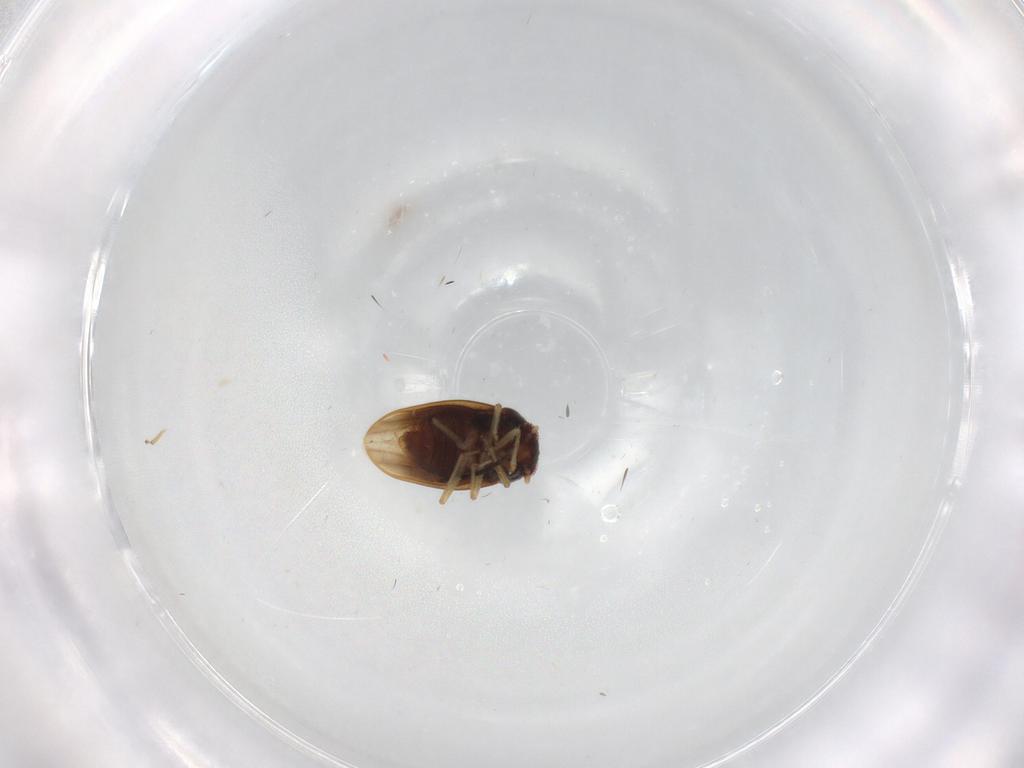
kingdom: Animalia
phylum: Arthropoda
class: Insecta
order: Hemiptera
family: Schizopteridae
